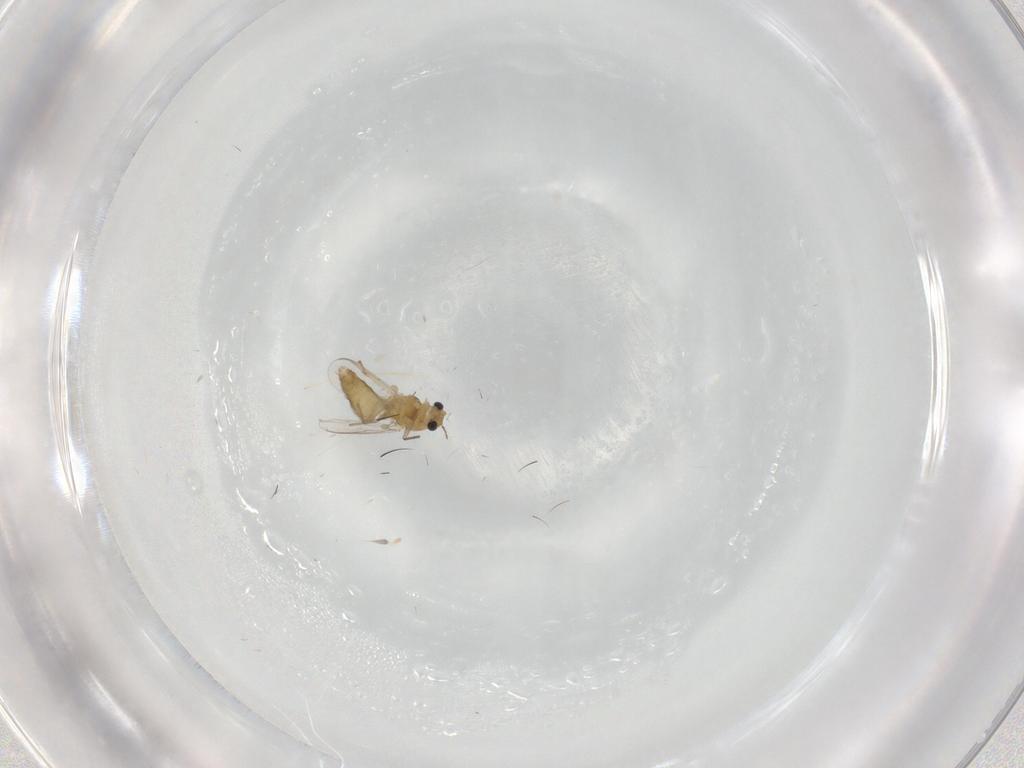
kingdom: Animalia
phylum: Arthropoda
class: Insecta
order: Diptera
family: Chironomidae
